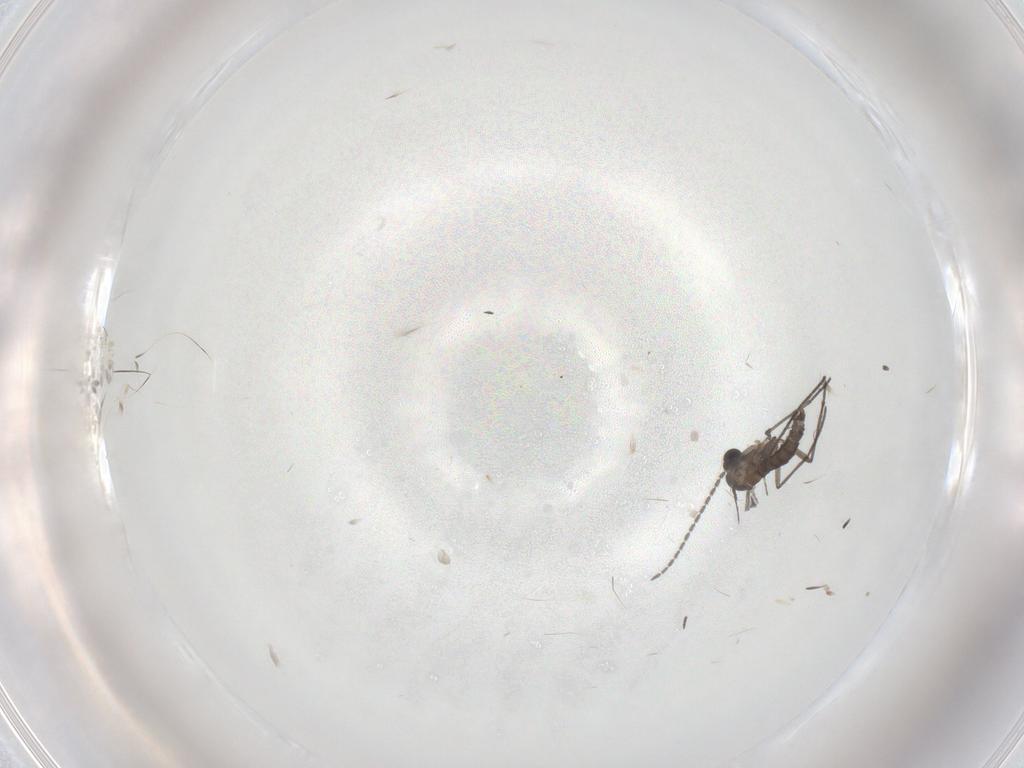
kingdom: Animalia
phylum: Arthropoda
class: Insecta
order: Diptera
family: Sciaridae
